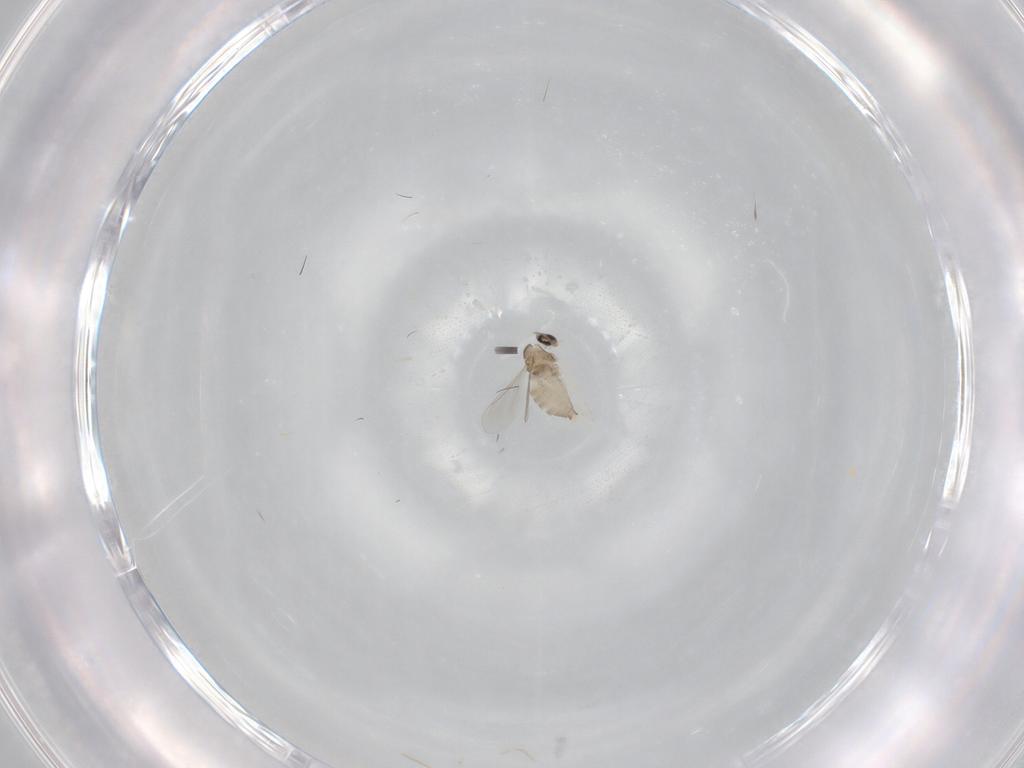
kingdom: Animalia
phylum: Arthropoda
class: Insecta
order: Diptera
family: Cecidomyiidae
